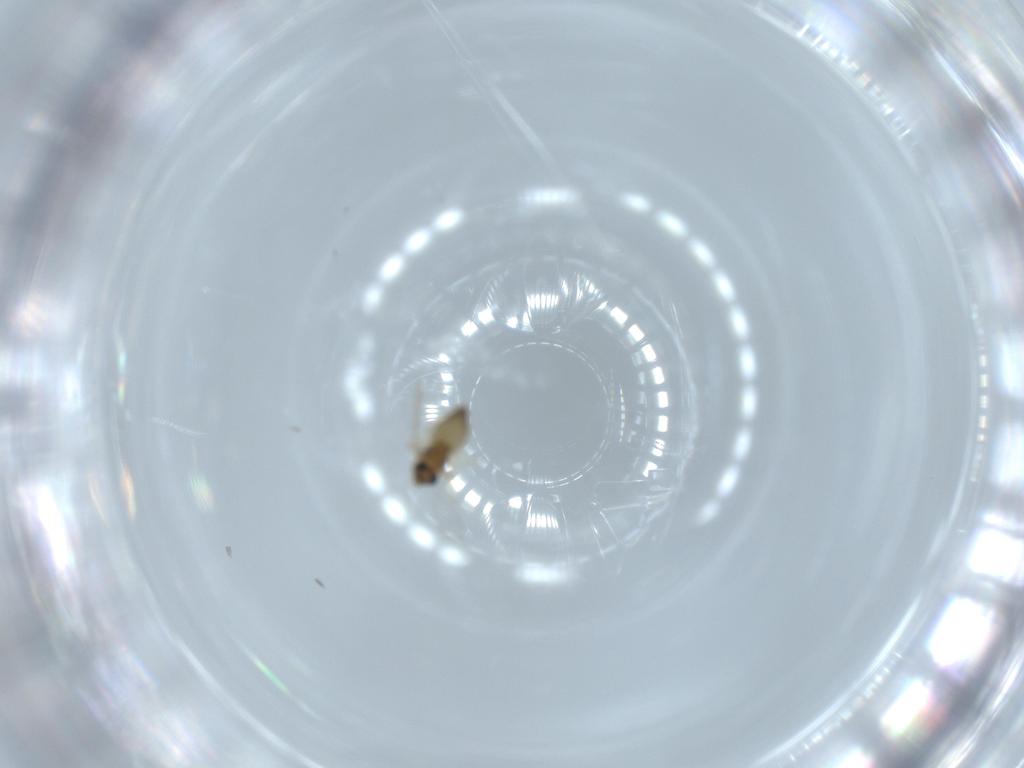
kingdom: Animalia
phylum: Arthropoda
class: Insecta
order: Diptera
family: Chironomidae
